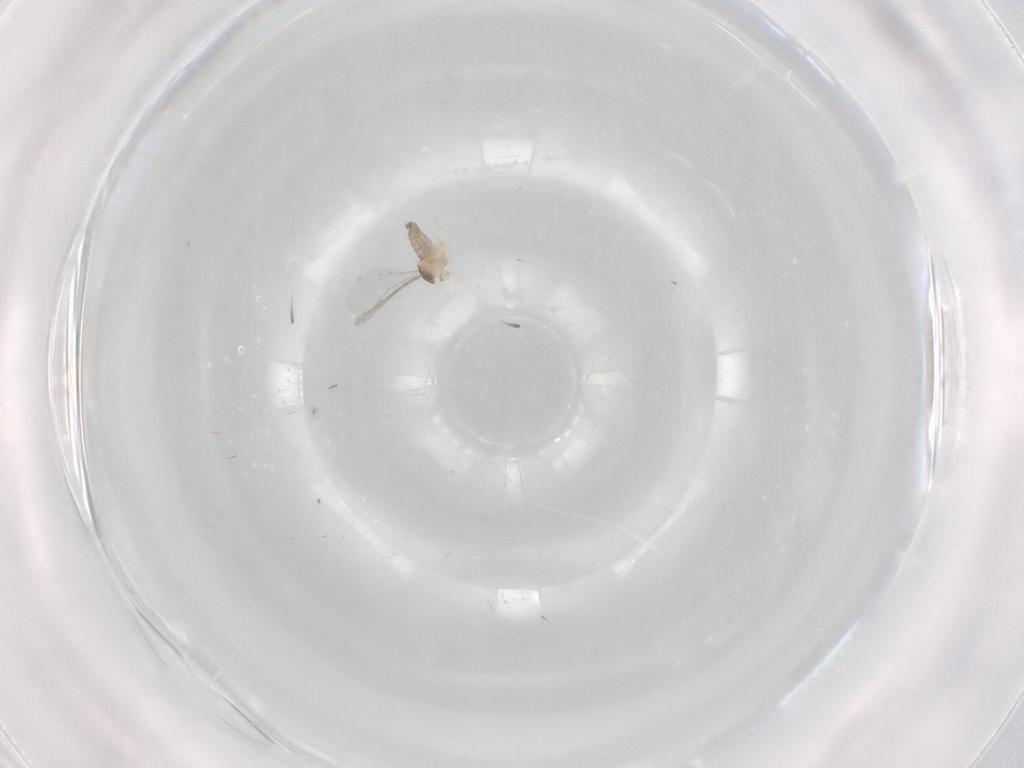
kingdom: Animalia
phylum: Arthropoda
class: Insecta
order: Diptera
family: Cecidomyiidae
